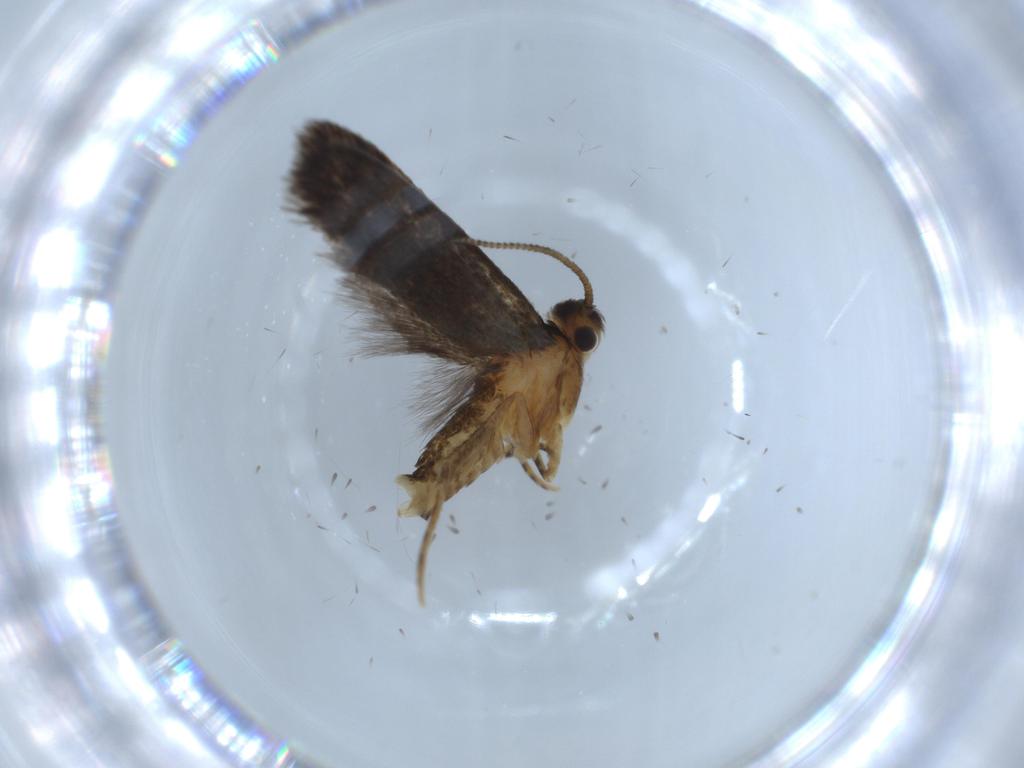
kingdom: Animalia
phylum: Arthropoda
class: Insecta
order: Lepidoptera
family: Tineidae
